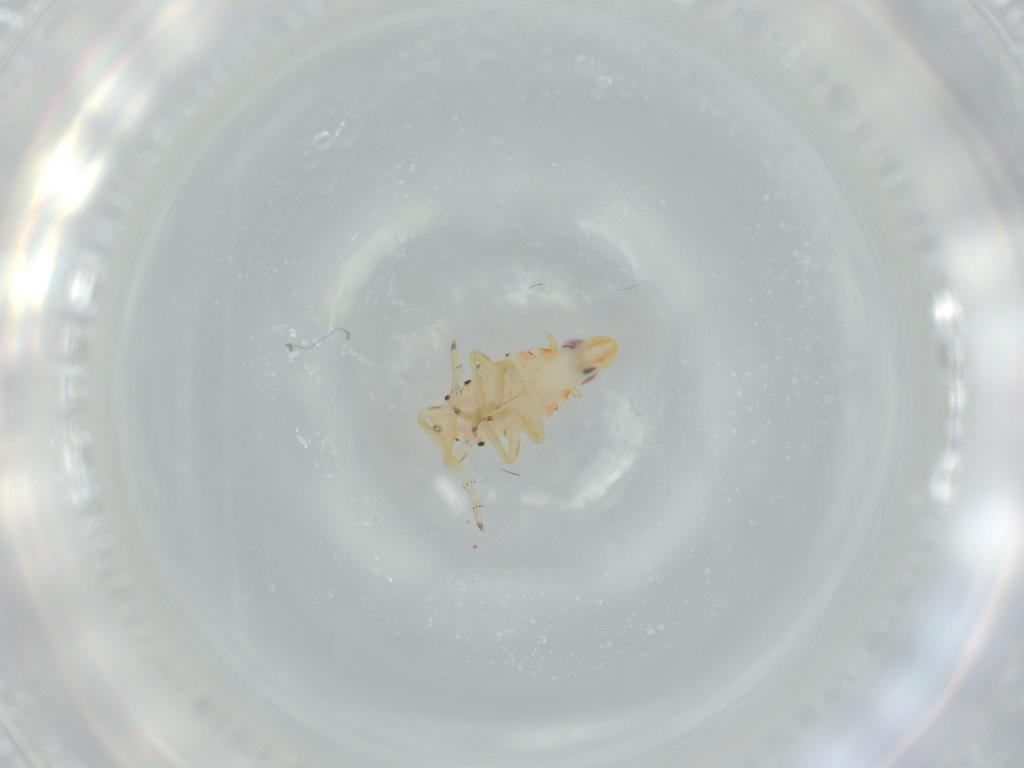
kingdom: Animalia
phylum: Arthropoda
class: Insecta
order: Hemiptera
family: Tropiduchidae
